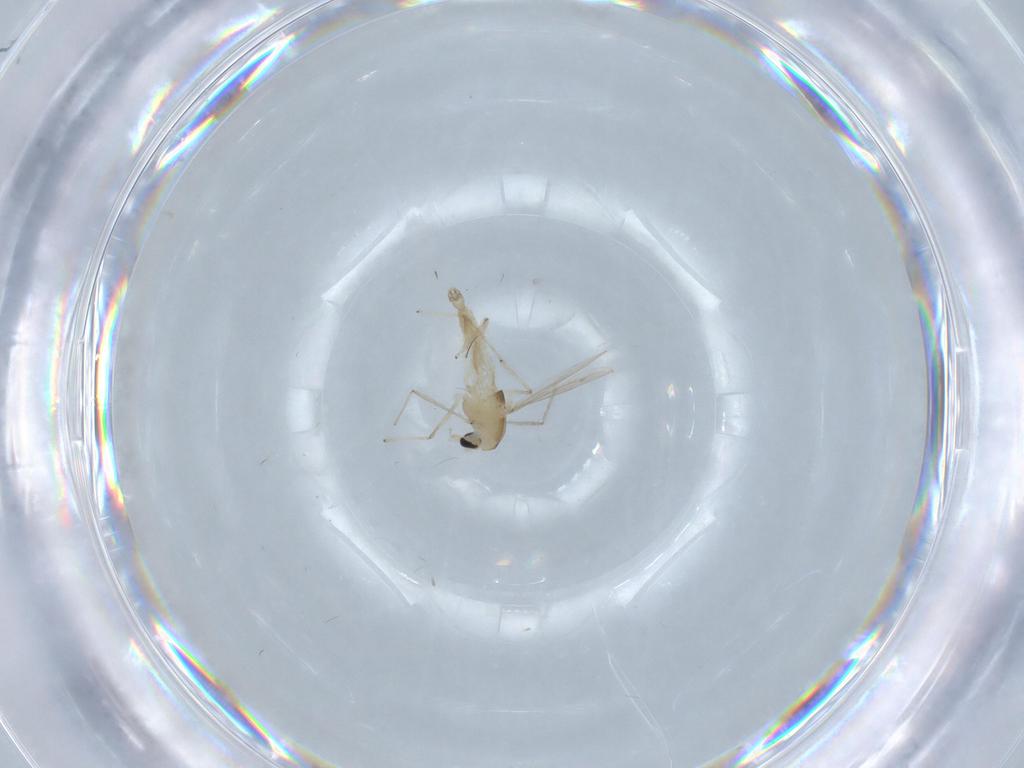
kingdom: Animalia
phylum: Arthropoda
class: Insecta
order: Diptera
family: Chironomidae
